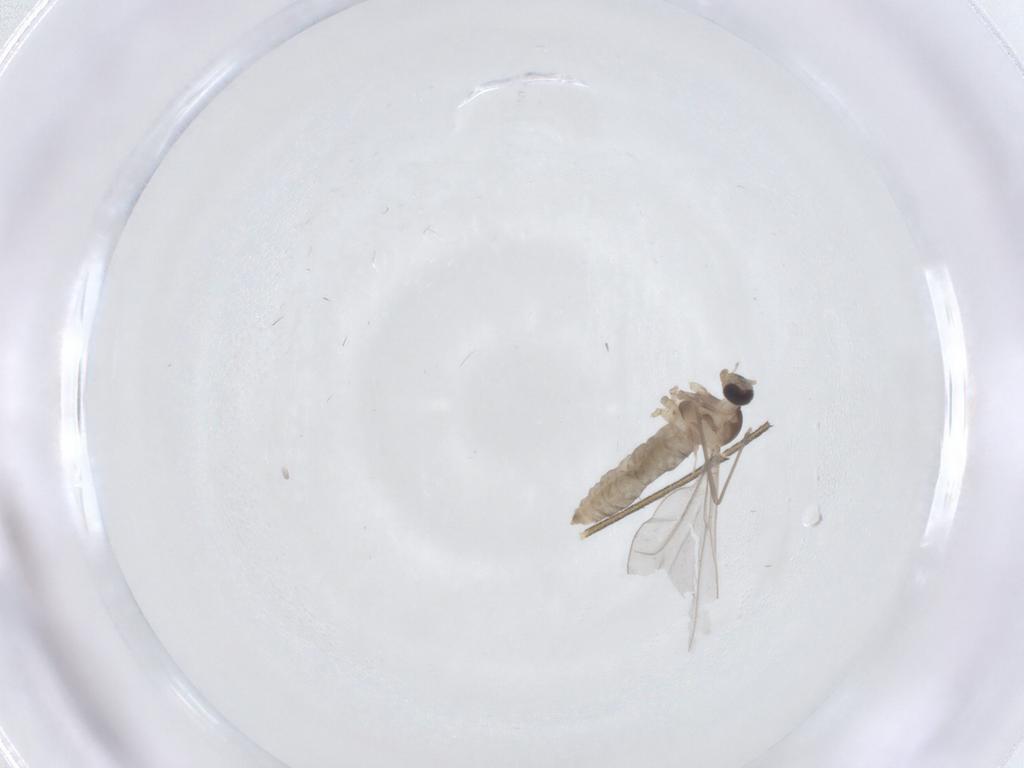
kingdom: Animalia
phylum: Arthropoda
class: Insecta
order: Diptera
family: Cecidomyiidae
